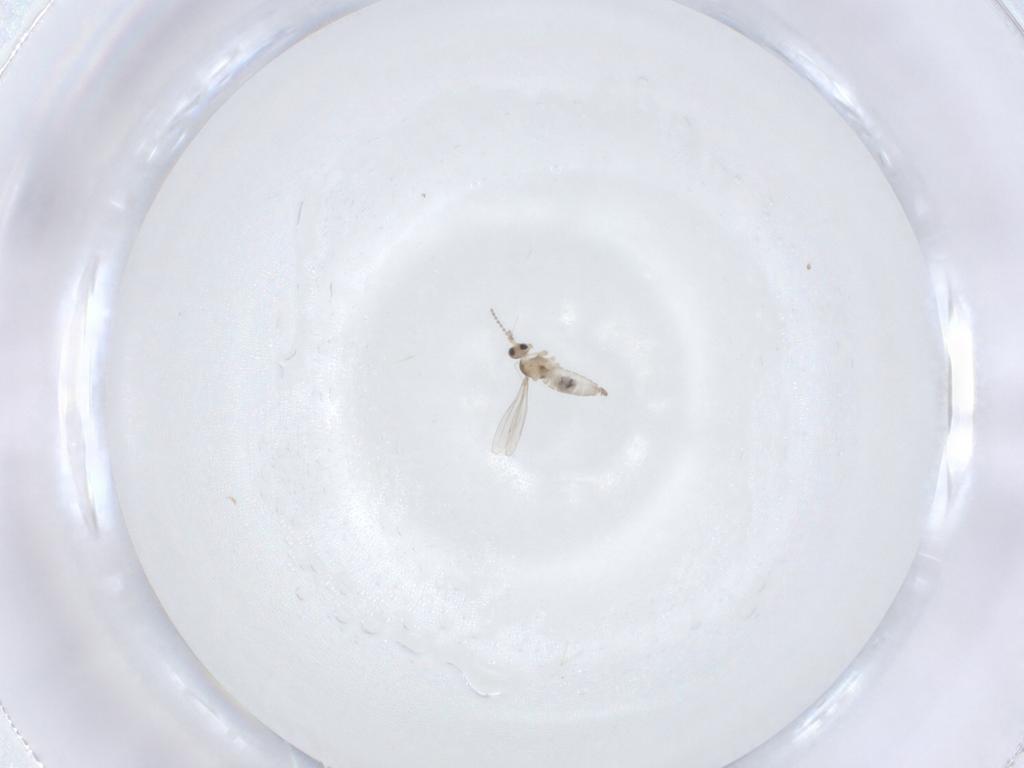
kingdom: Animalia
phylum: Arthropoda
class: Insecta
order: Diptera
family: Cecidomyiidae
